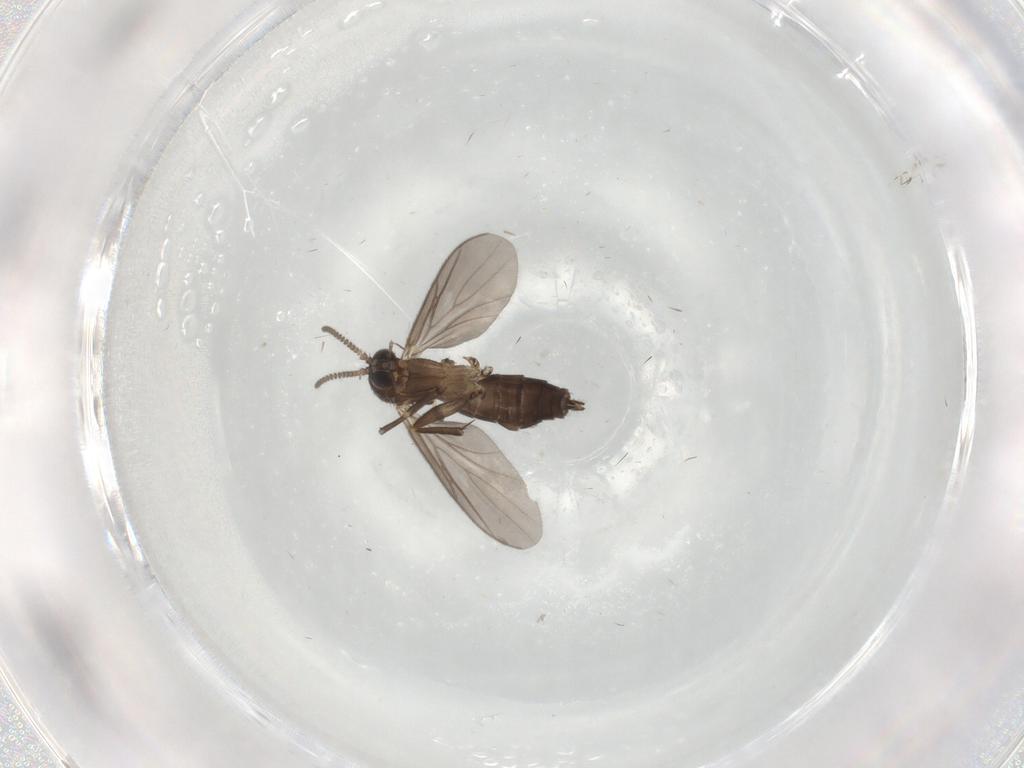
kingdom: Animalia
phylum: Arthropoda
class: Insecta
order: Diptera
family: Mycetophilidae
